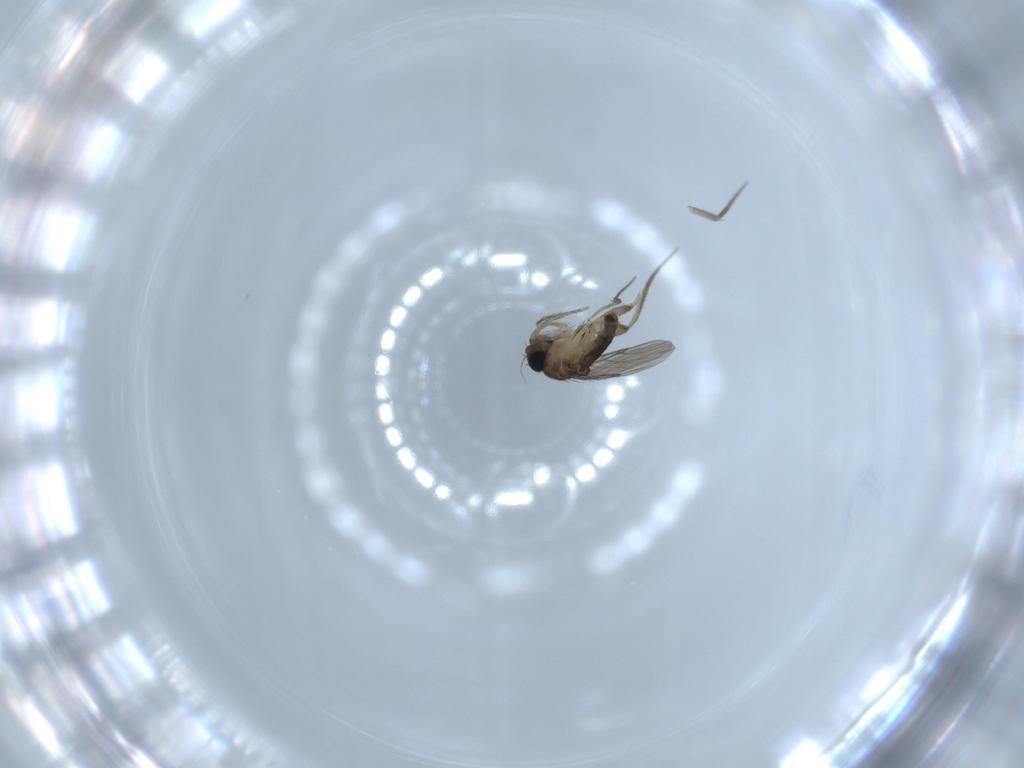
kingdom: Animalia
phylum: Arthropoda
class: Insecta
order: Diptera
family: Phoridae
